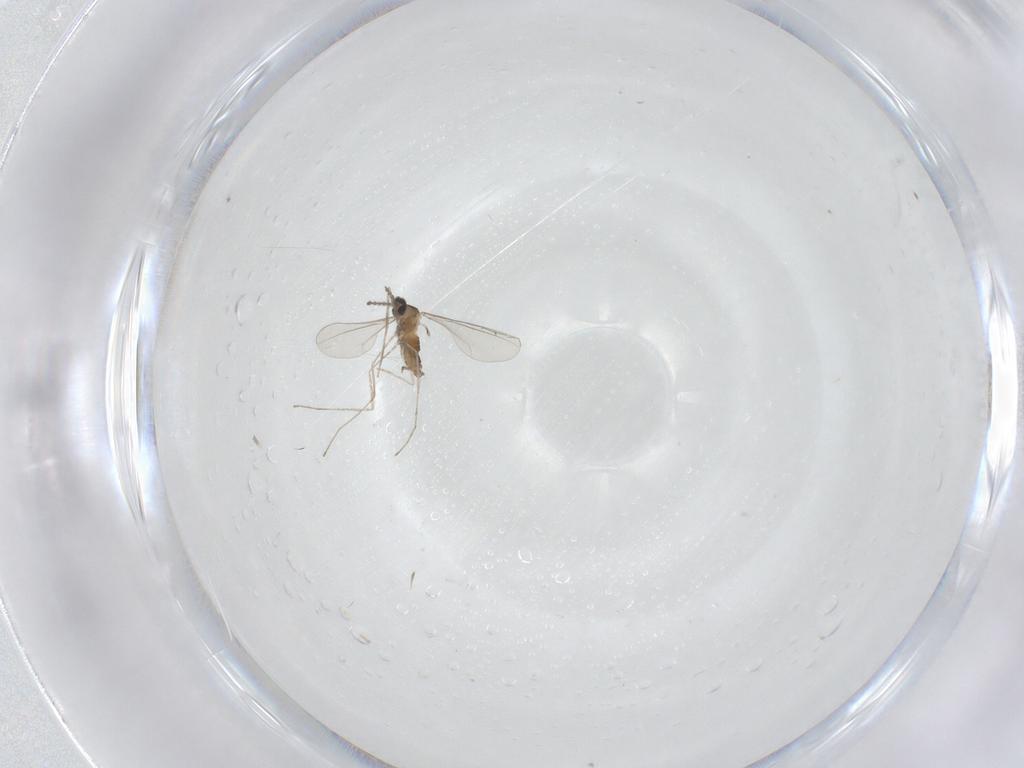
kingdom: Animalia
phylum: Arthropoda
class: Insecta
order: Diptera
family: Cecidomyiidae
